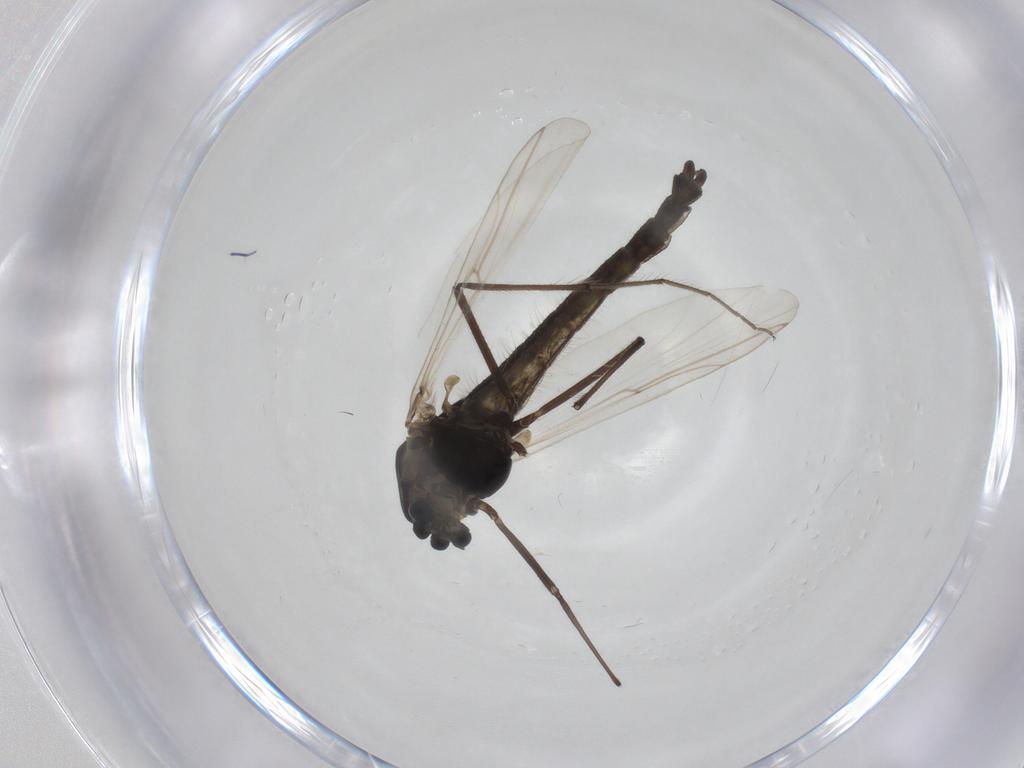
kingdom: Animalia
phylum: Arthropoda
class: Insecta
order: Diptera
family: Chironomidae
